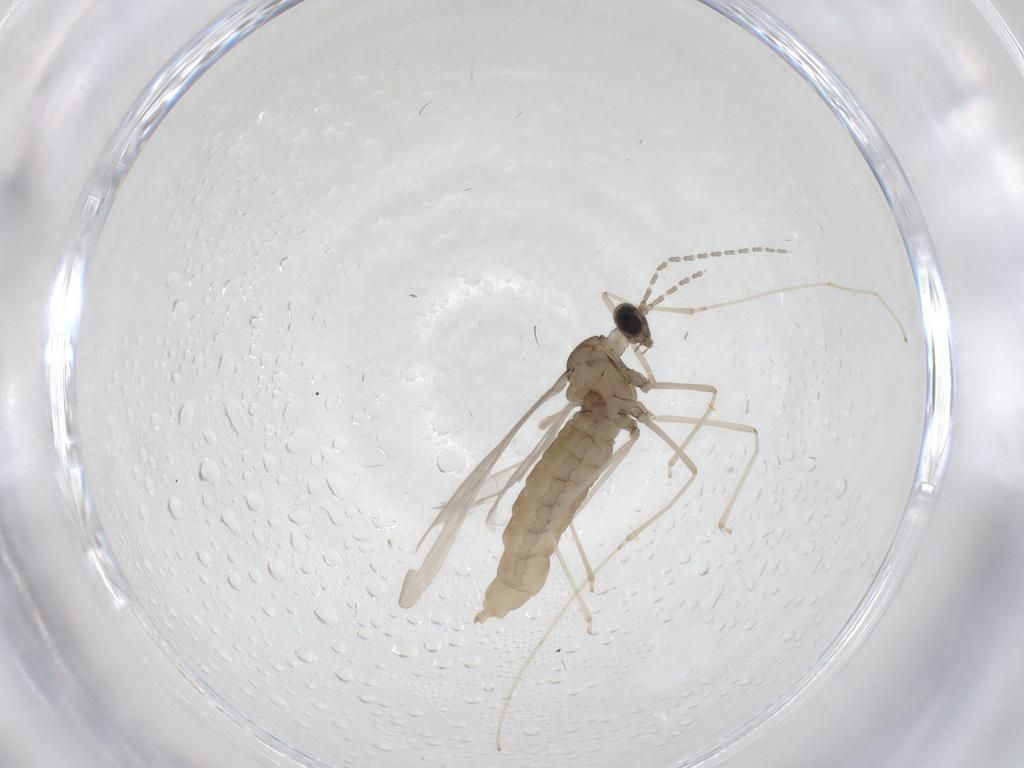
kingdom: Animalia
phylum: Arthropoda
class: Insecta
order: Diptera
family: Cecidomyiidae
